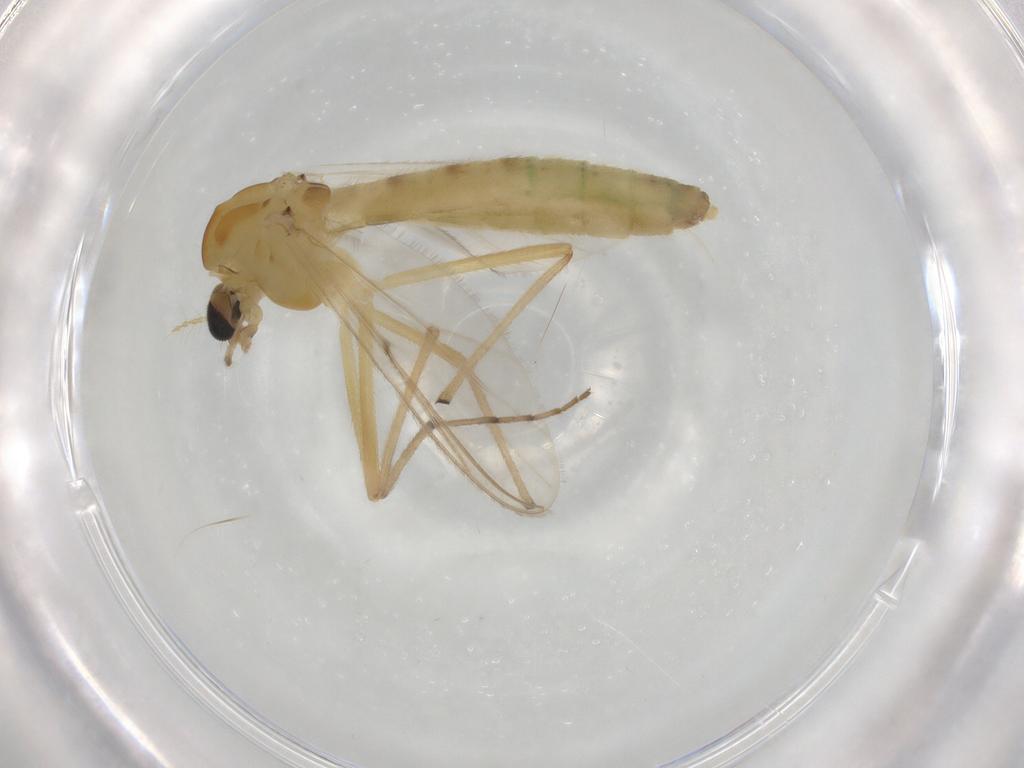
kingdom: Animalia
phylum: Arthropoda
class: Insecta
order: Diptera
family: Chironomidae
